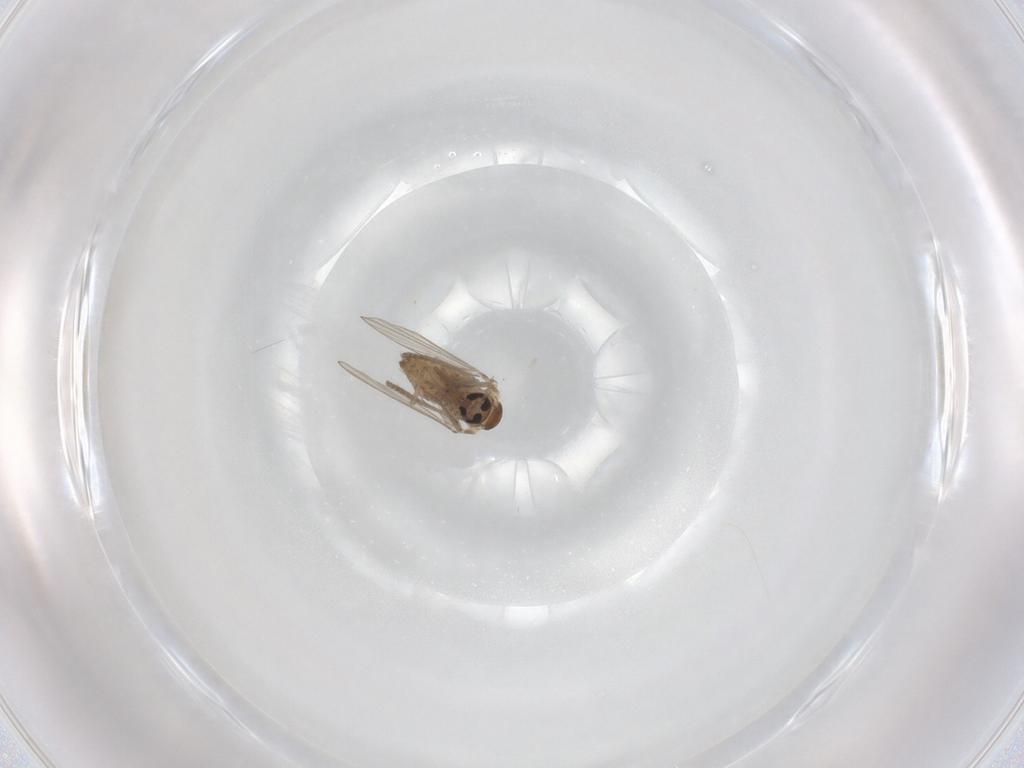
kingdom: Animalia
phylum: Arthropoda
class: Insecta
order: Diptera
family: Psychodidae
